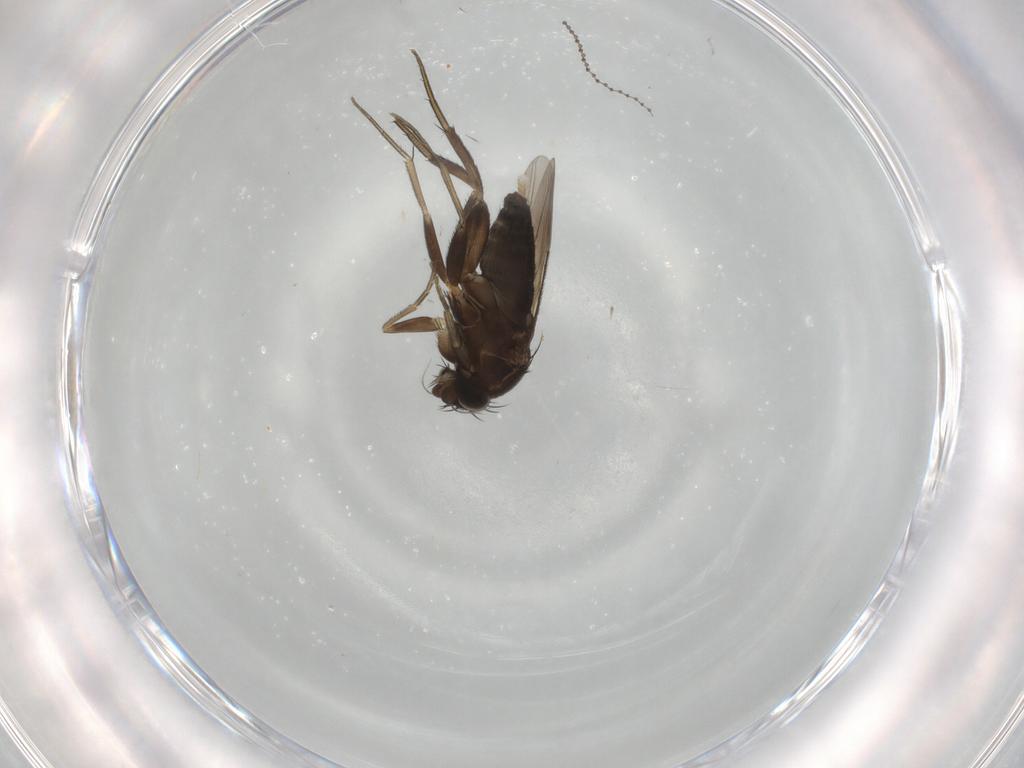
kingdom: Animalia
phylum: Arthropoda
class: Insecta
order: Diptera
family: Phoridae
